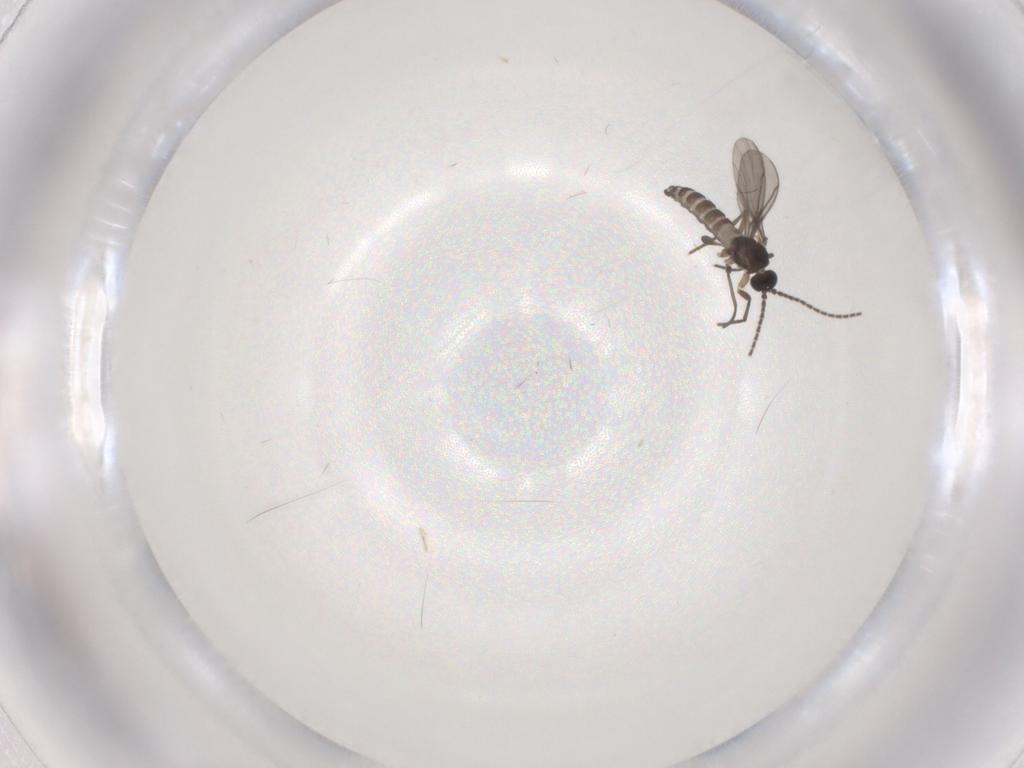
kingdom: Animalia
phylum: Arthropoda
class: Insecta
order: Diptera
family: Sciaridae
